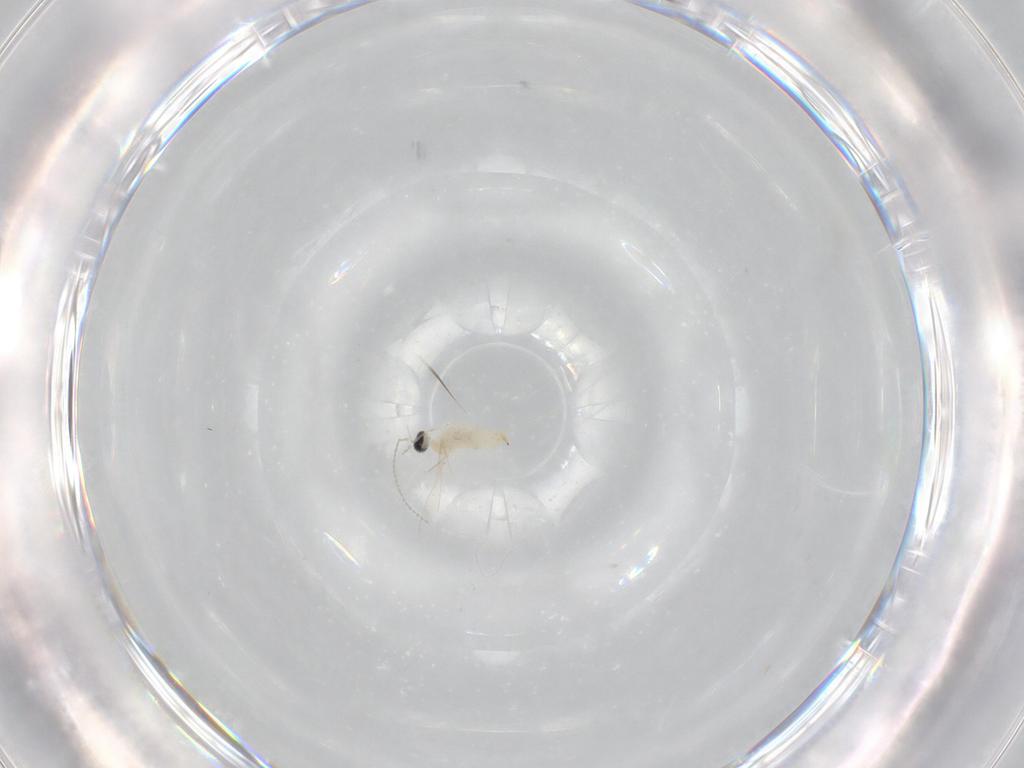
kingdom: Animalia
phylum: Arthropoda
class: Insecta
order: Diptera
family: Cecidomyiidae
